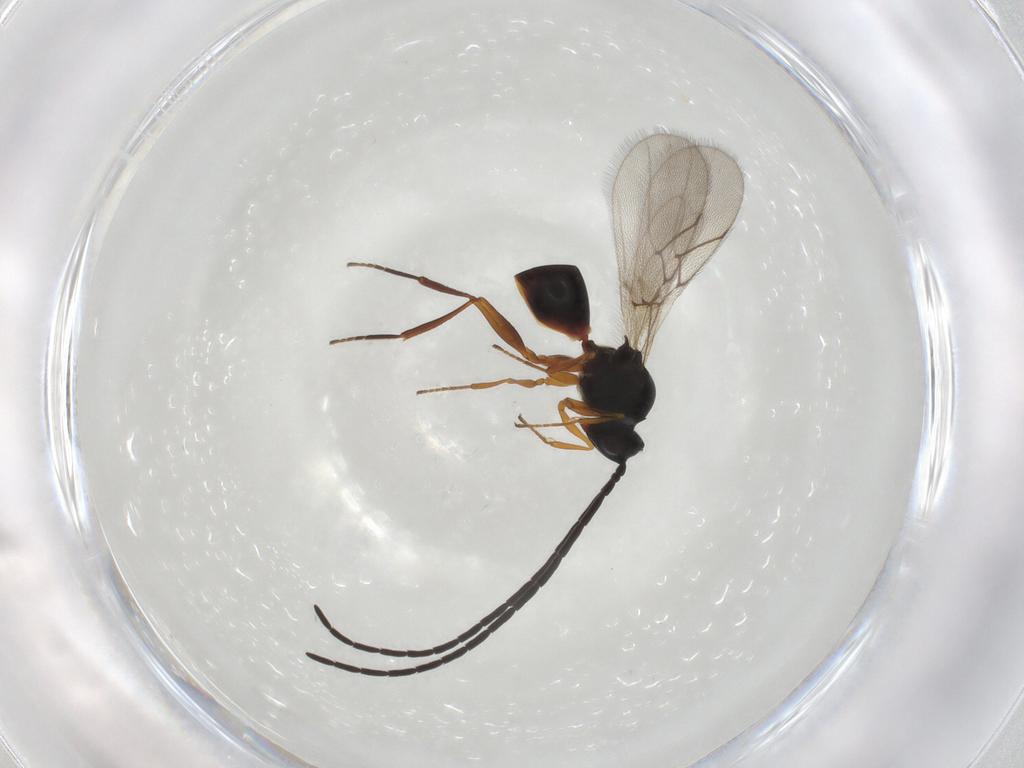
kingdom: Animalia
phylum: Arthropoda
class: Insecta
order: Hymenoptera
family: Figitidae
